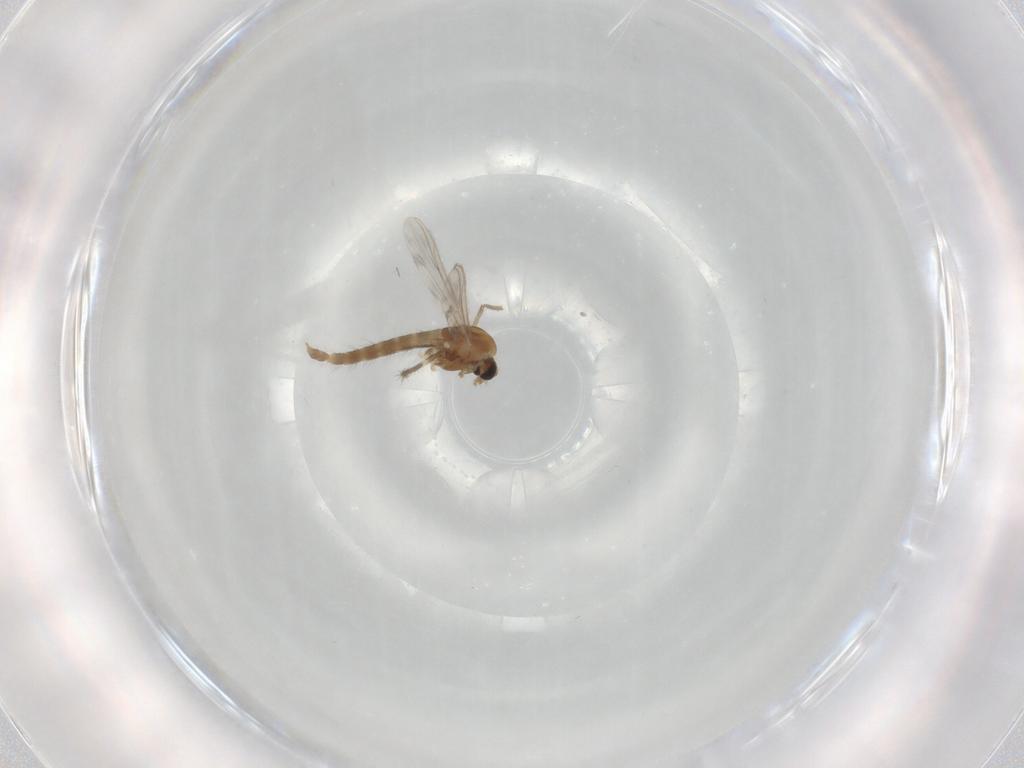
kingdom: Animalia
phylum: Arthropoda
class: Insecta
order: Diptera
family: Chironomidae
